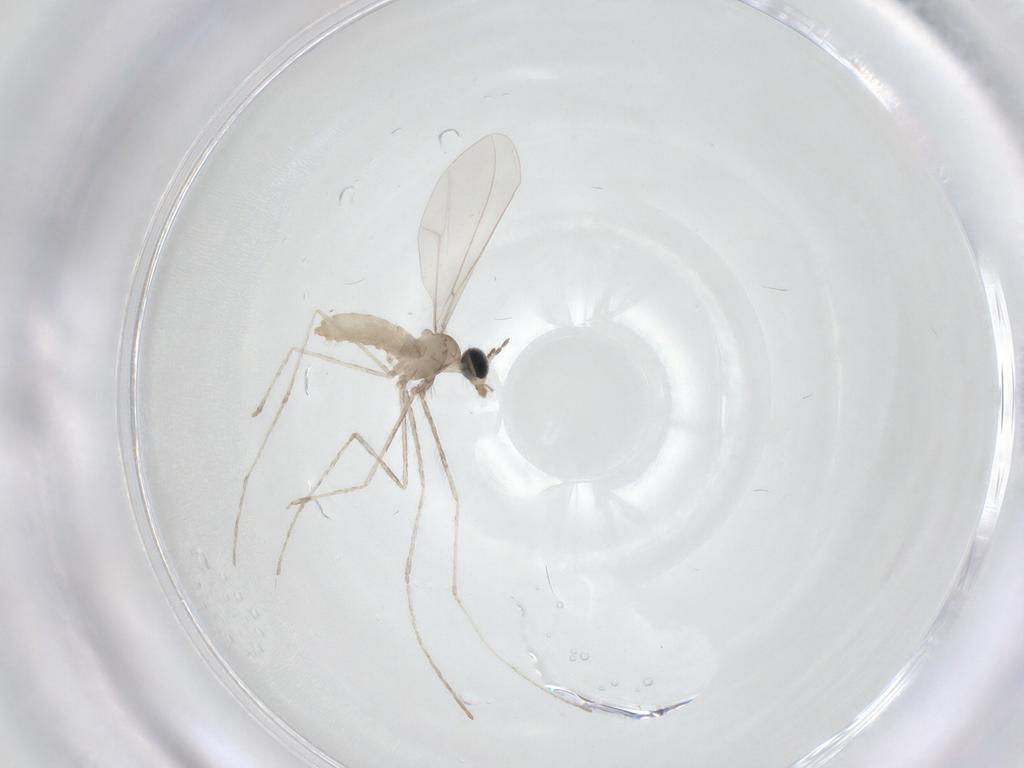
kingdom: Animalia
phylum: Arthropoda
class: Insecta
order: Diptera
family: Cecidomyiidae
